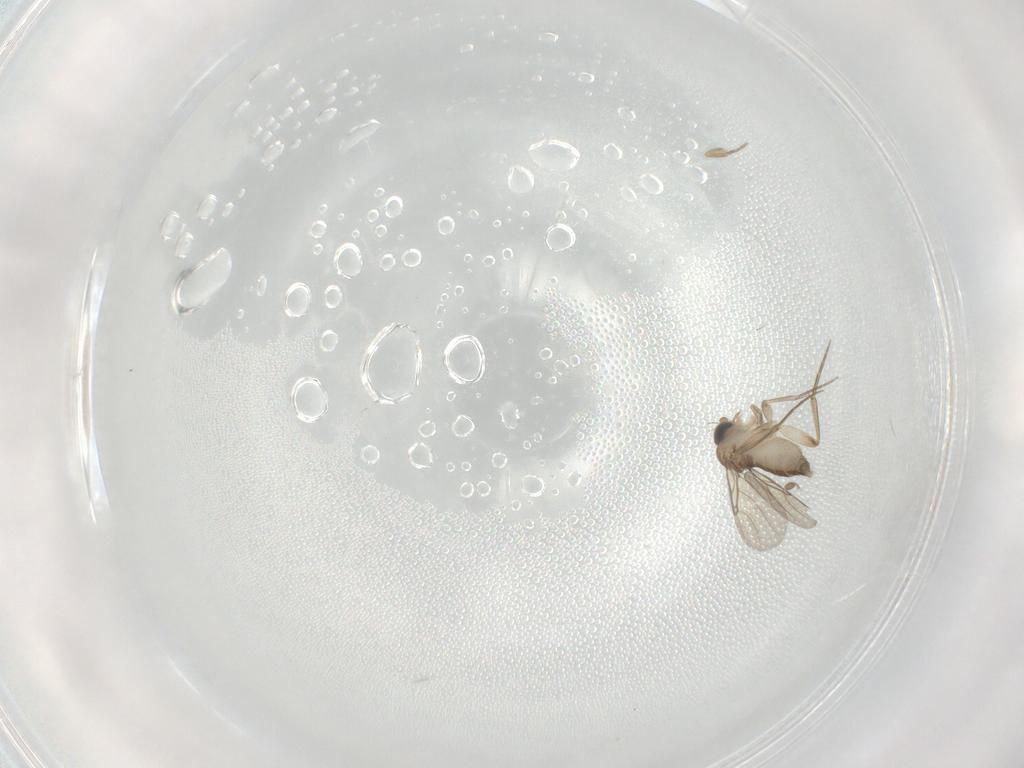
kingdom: Animalia
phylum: Arthropoda
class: Insecta
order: Diptera
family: Phoridae
